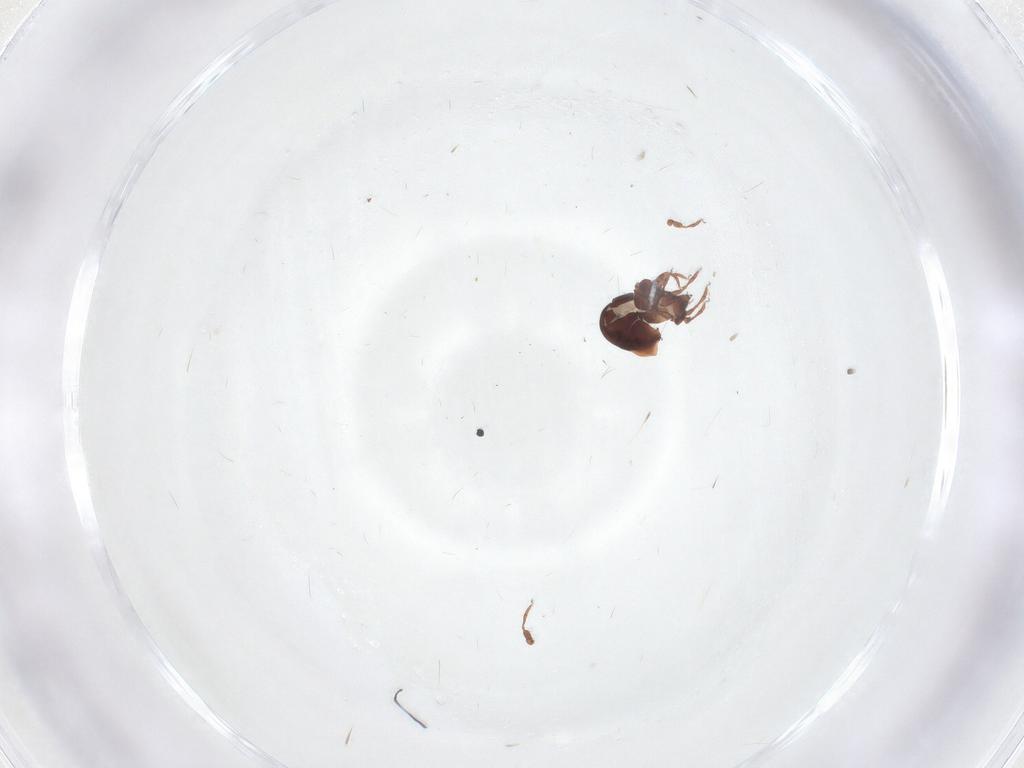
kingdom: Animalia
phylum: Arthropoda
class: Arachnida
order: Sarcoptiformes
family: Ceratozetidae
